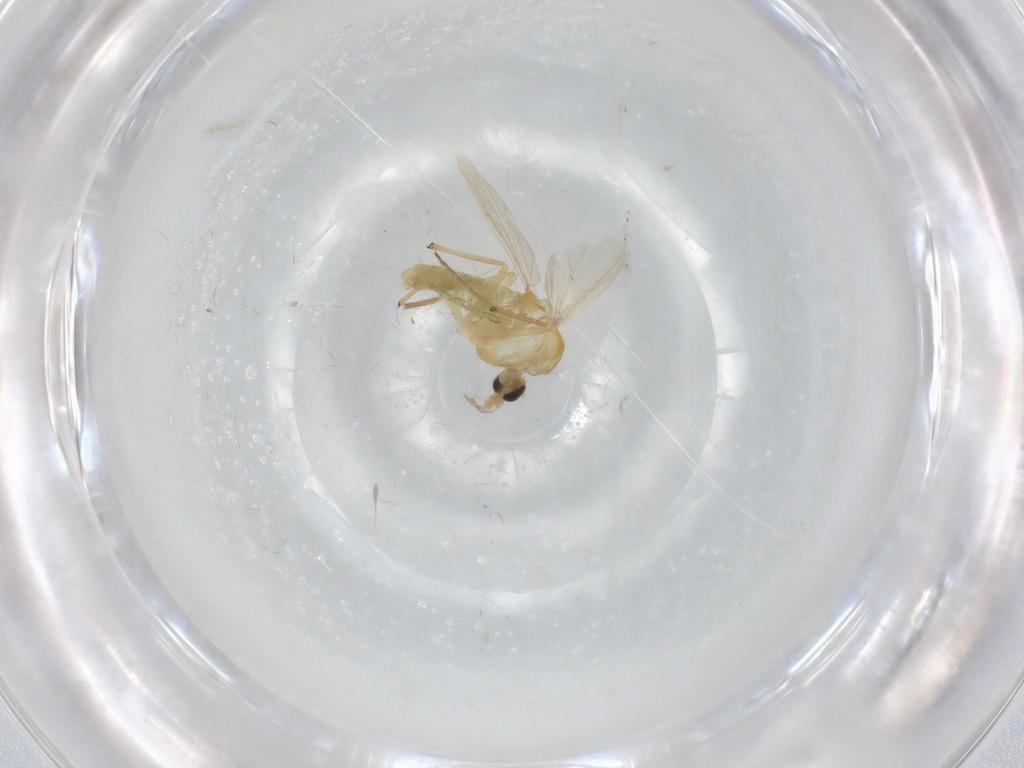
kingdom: Animalia
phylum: Arthropoda
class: Insecta
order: Diptera
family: Chironomidae
